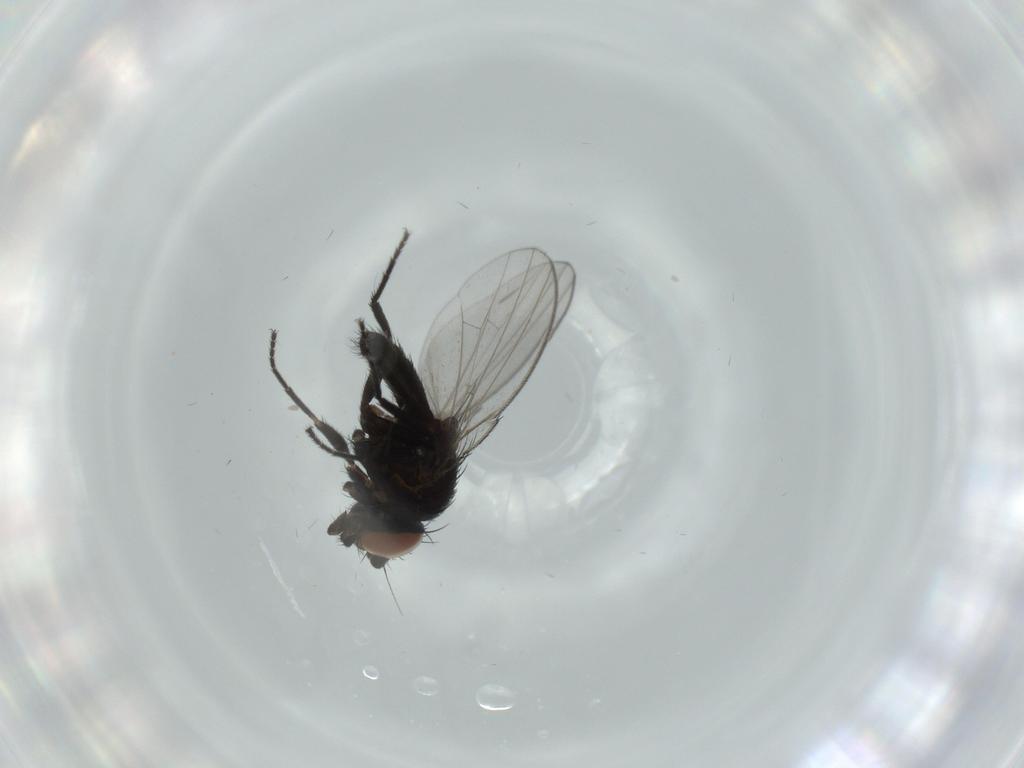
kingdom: Animalia
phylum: Arthropoda
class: Insecta
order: Diptera
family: Milichiidae
